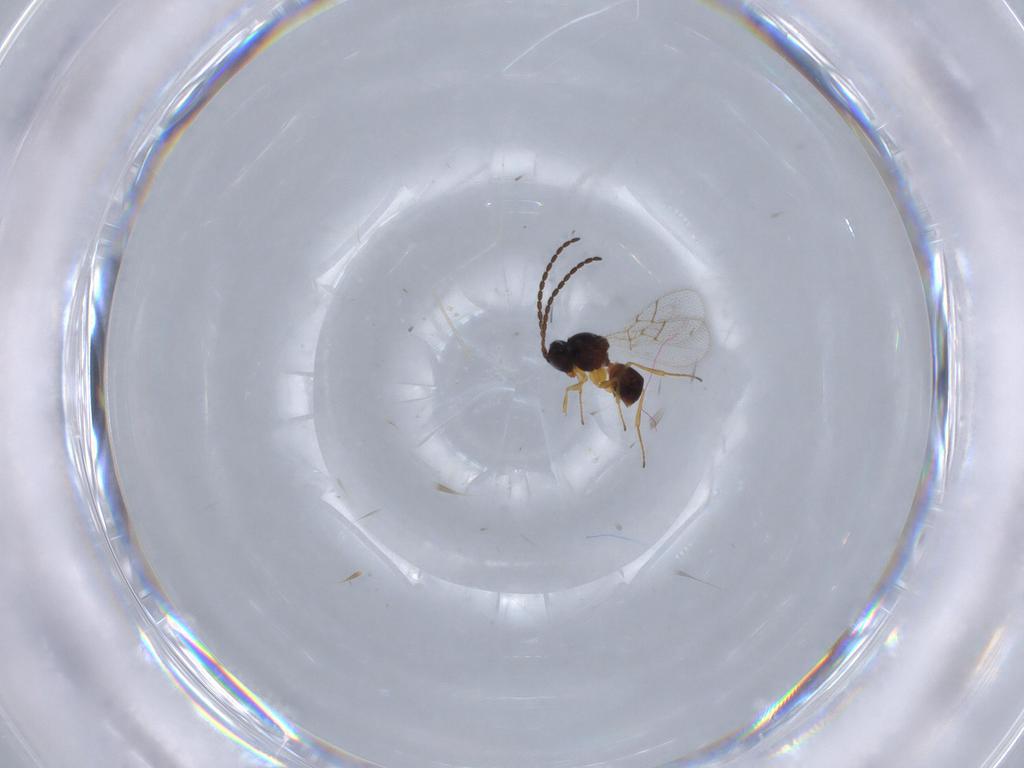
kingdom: Animalia
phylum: Arthropoda
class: Insecta
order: Hymenoptera
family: Figitidae
